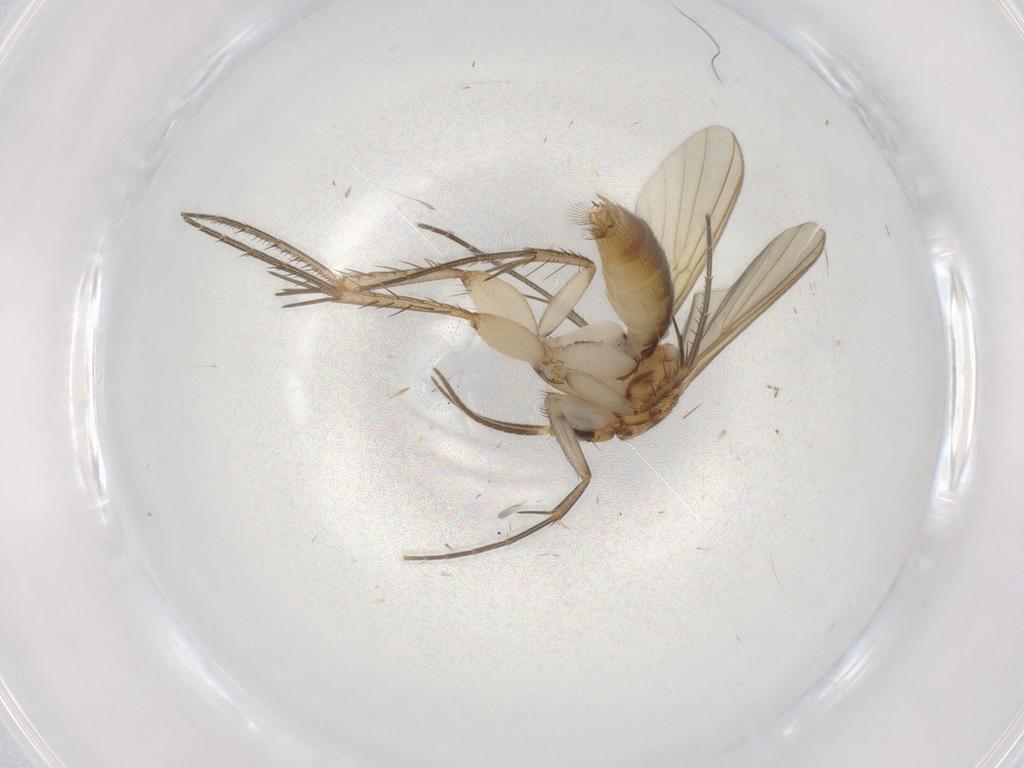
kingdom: Animalia
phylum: Arthropoda
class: Insecta
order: Diptera
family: Mycetophilidae
